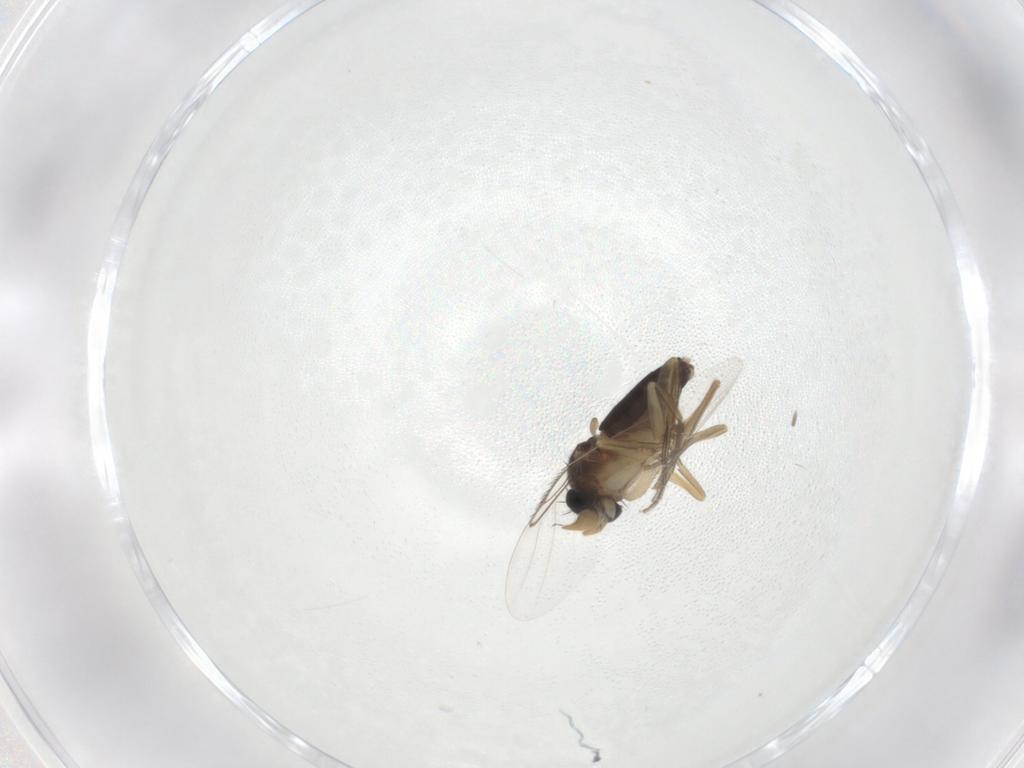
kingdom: Animalia
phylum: Arthropoda
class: Insecta
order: Diptera
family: Phoridae
